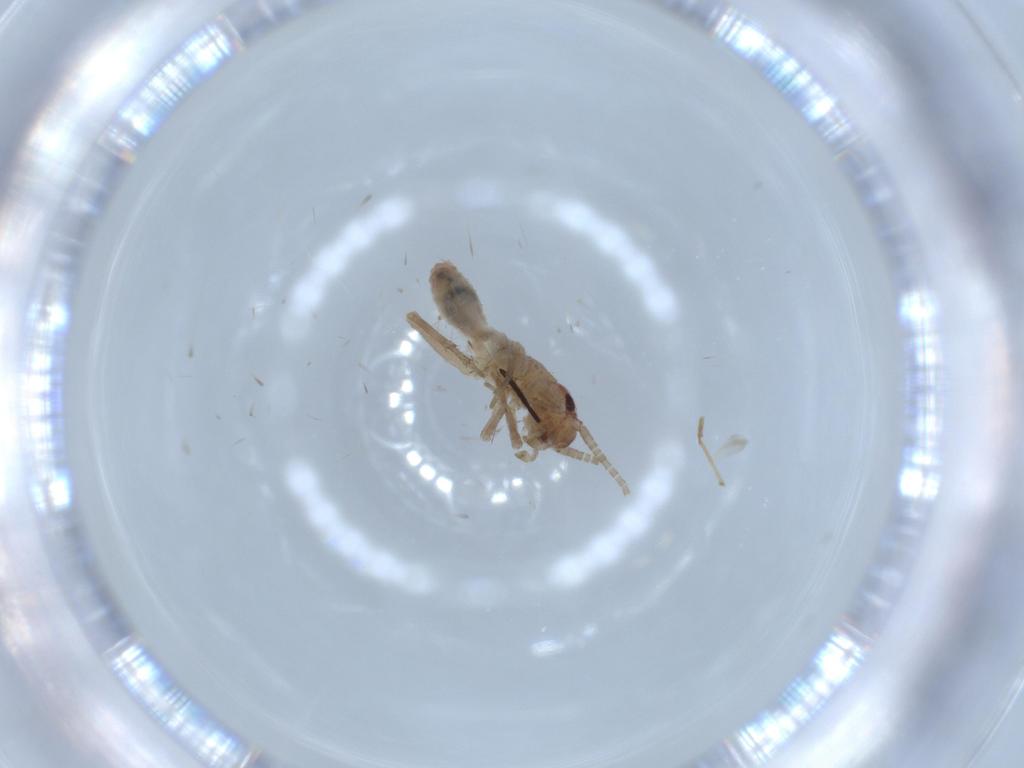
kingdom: Animalia
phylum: Arthropoda
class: Insecta
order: Orthoptera
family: Mogoplistidae
